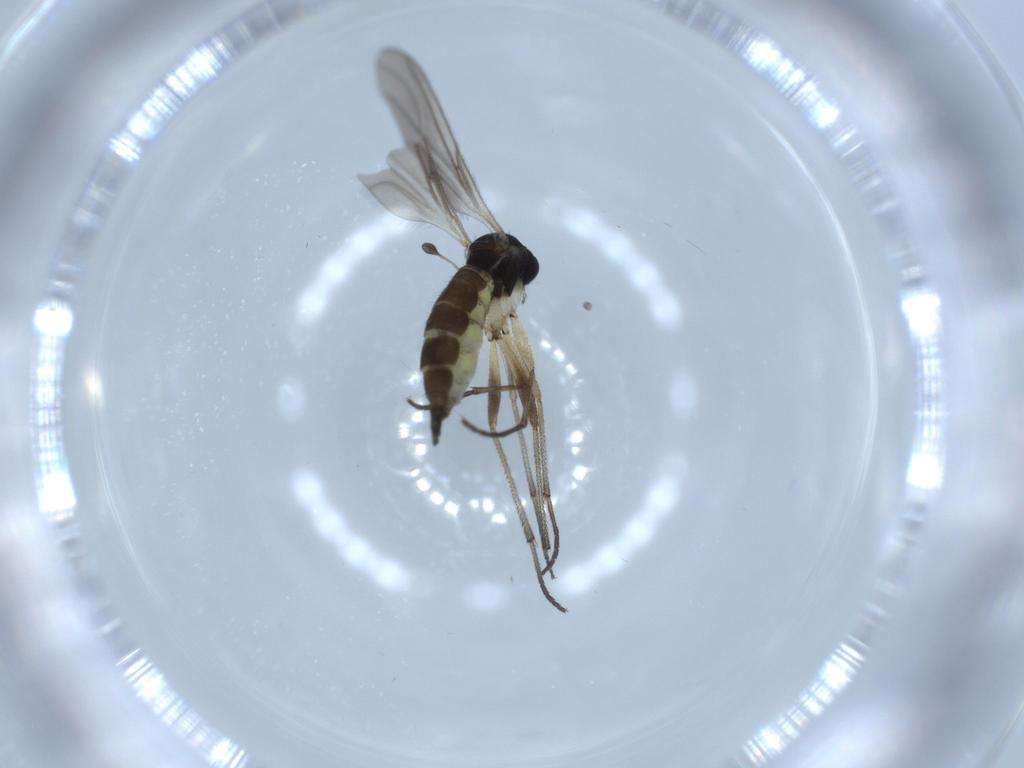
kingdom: Animalia
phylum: Arthropoda
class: Insecta
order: Diptera
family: Sciaridae
